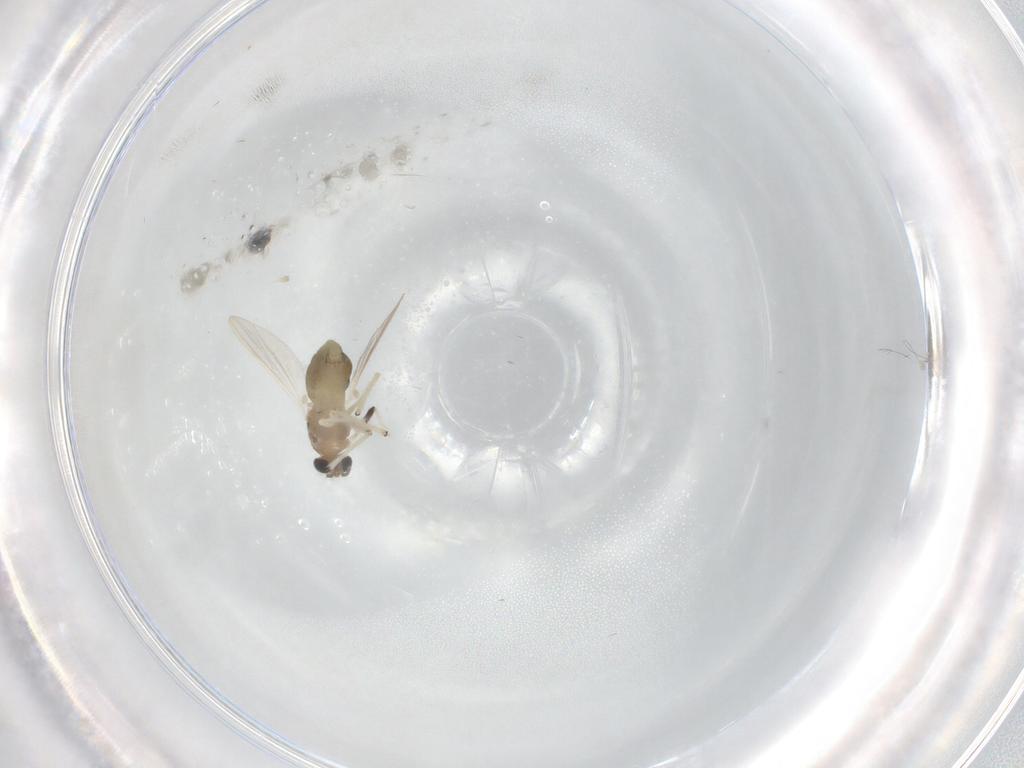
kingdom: Animalia
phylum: Arthropoda
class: Insecta
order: Diptera
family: Chironomidae
